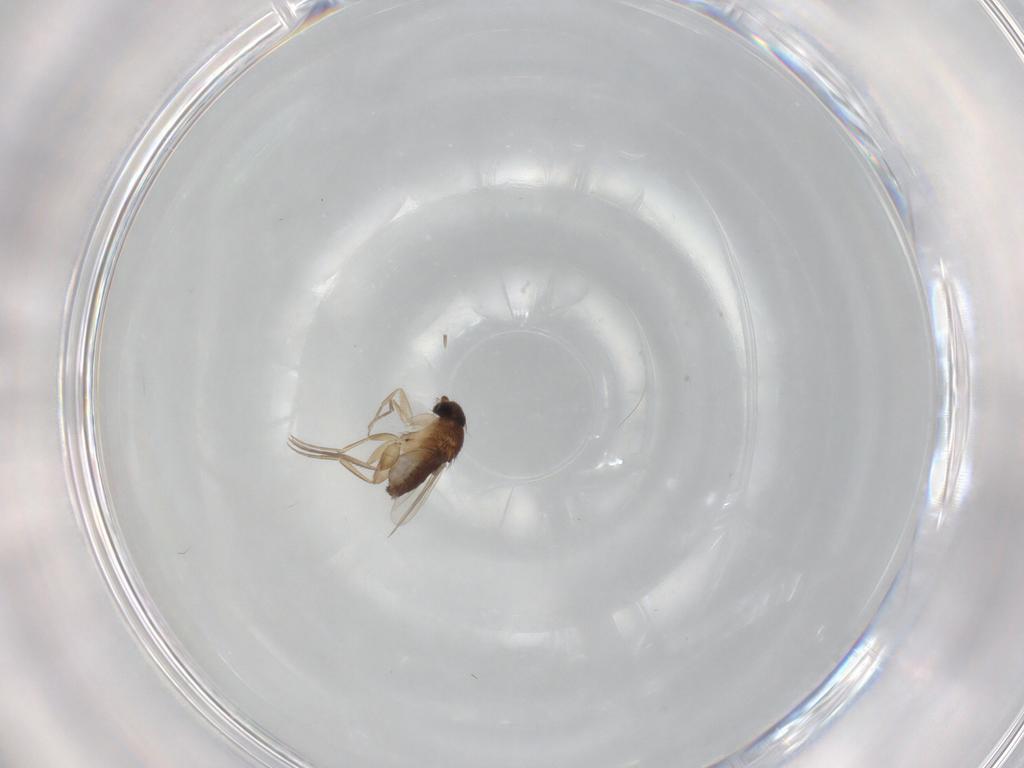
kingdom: Animalia
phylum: Arthropoda
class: Insecta
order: Diptera
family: Phoridae
